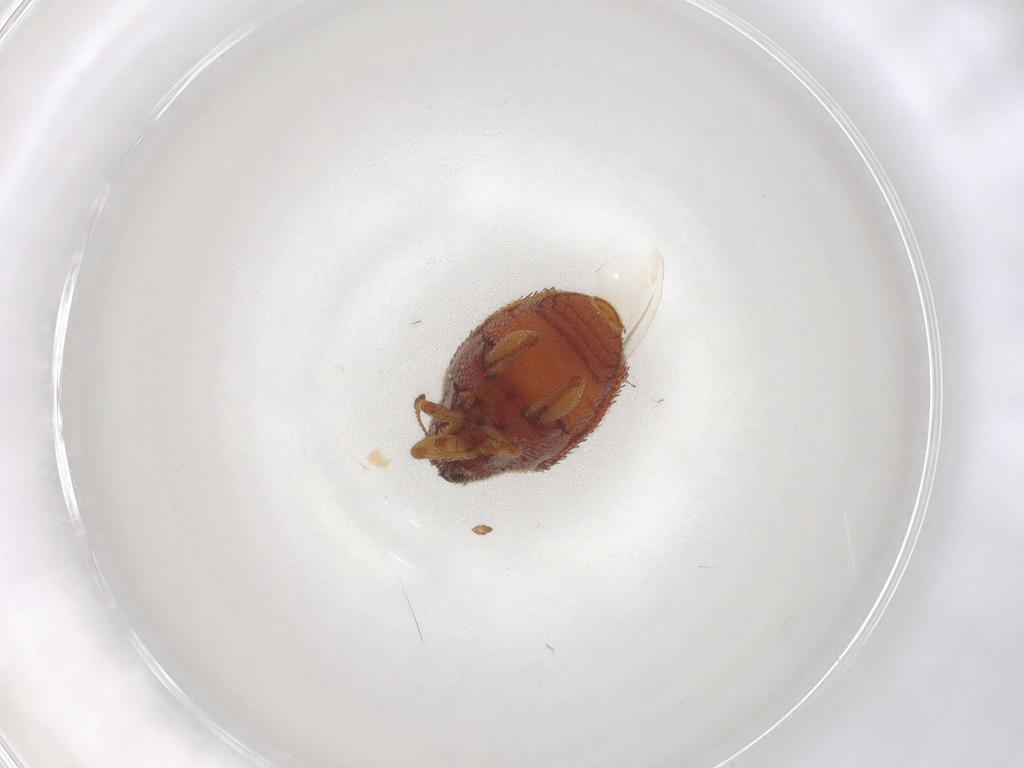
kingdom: Animalia
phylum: Arthropoda
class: Insecta
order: Coleoptera
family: Curculionidae
